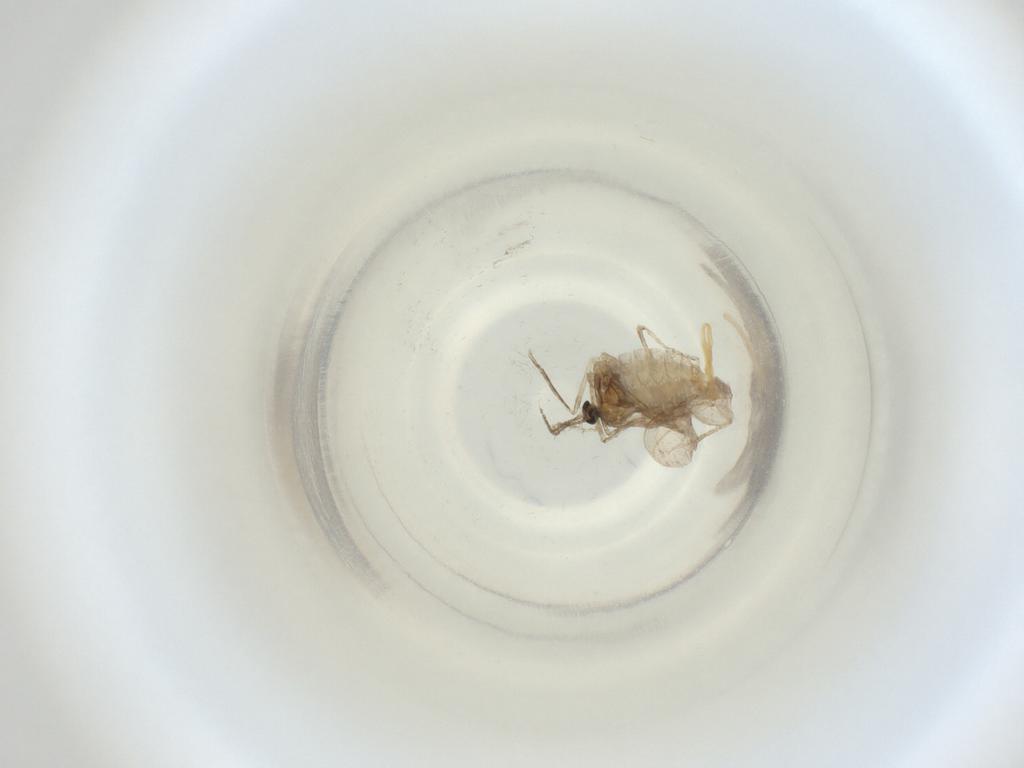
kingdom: Animalia
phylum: Arthropoda
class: Insecta
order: Diptera
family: Cecidomyiidae
